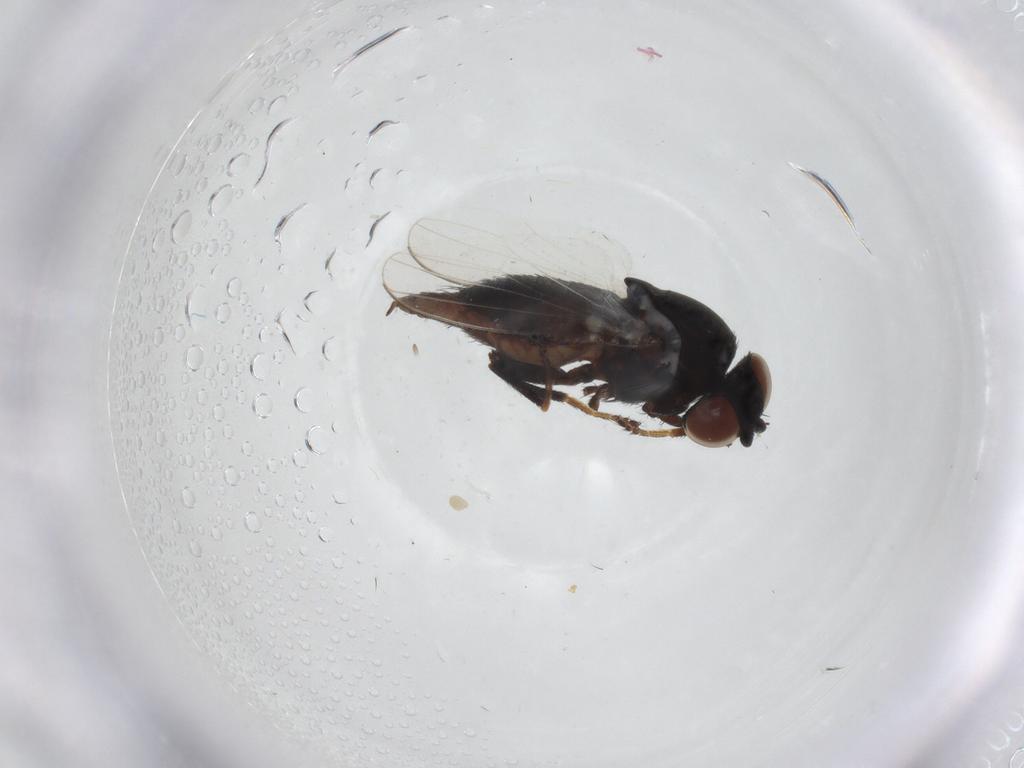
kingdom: Animalia
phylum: Arthropoda
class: Insecta
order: Diptera
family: Milichiidae
